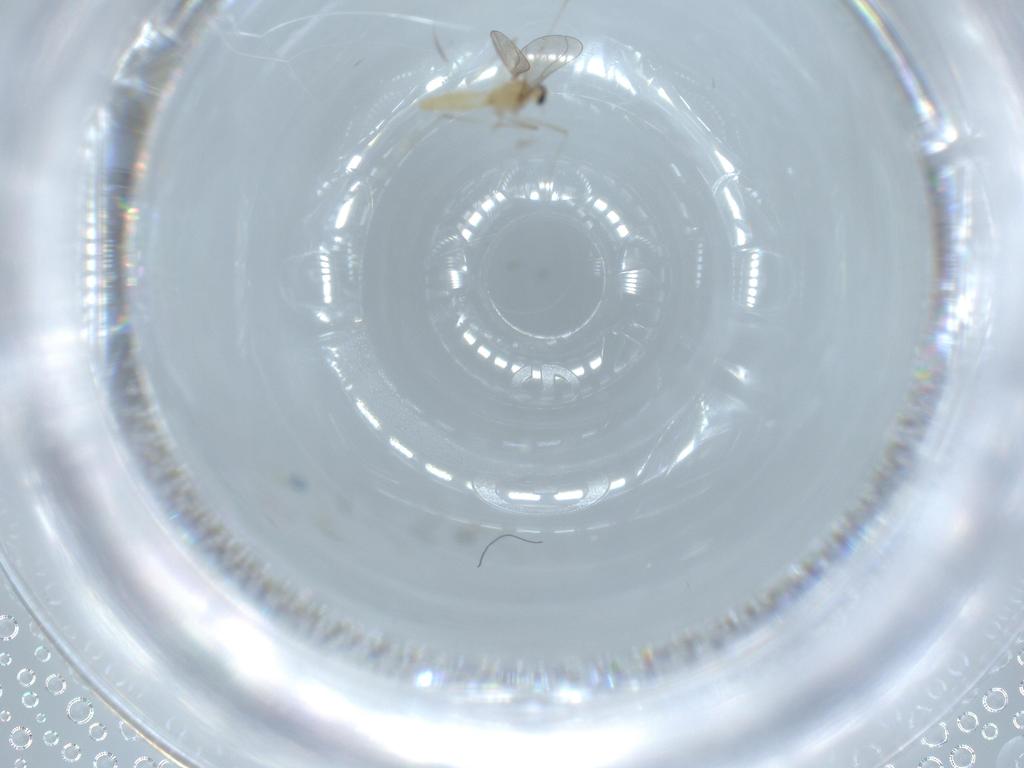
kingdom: Animalia
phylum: Arthropoda
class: Insecta
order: Diptera
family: Cecidomyiidae
